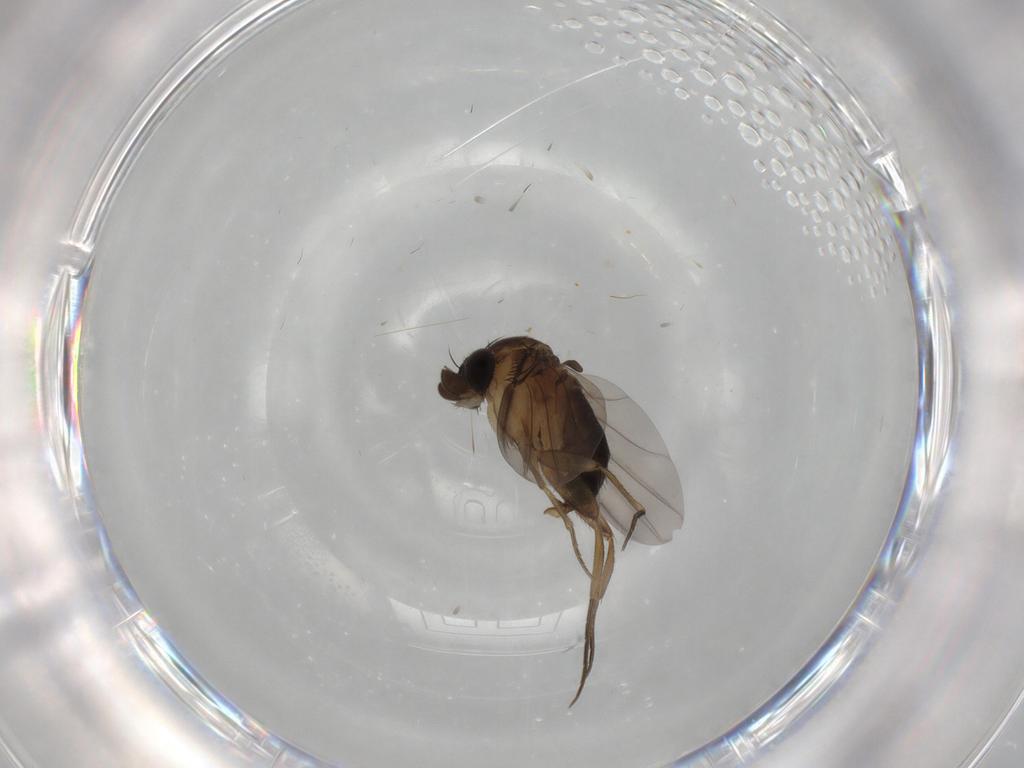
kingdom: Animalia
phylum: Arthropoda
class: Insecta
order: Diptera
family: Phoridae
